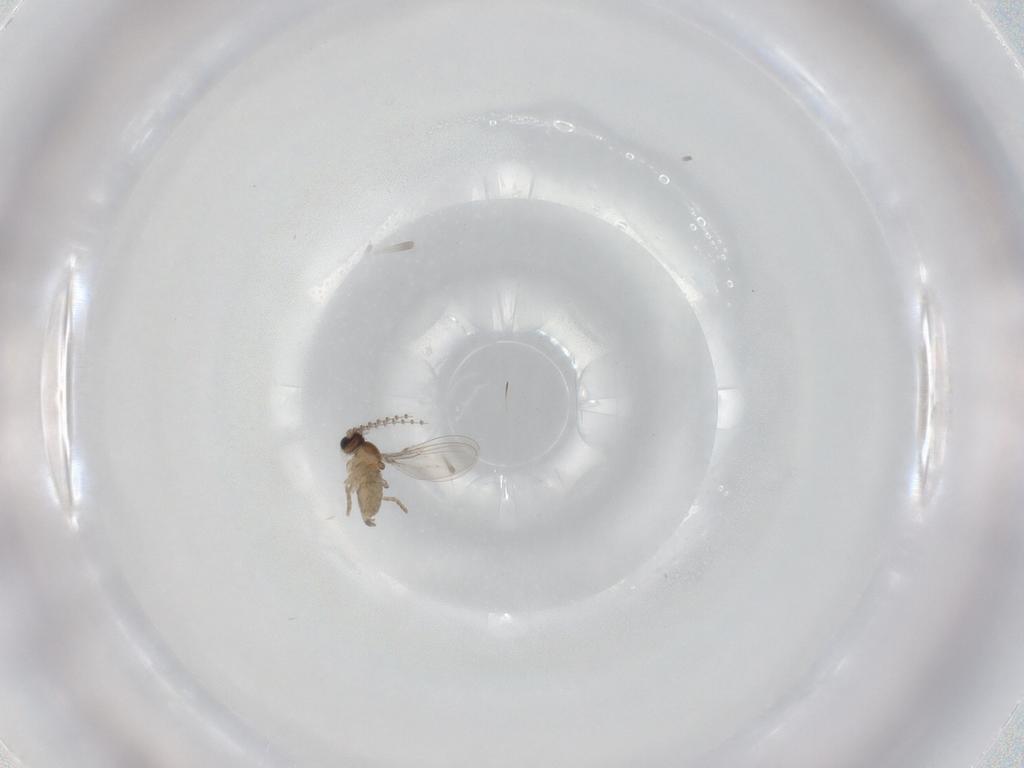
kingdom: Animalia
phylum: Arthropoda
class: Insecta
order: Diptera
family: Cecidomyiidae
